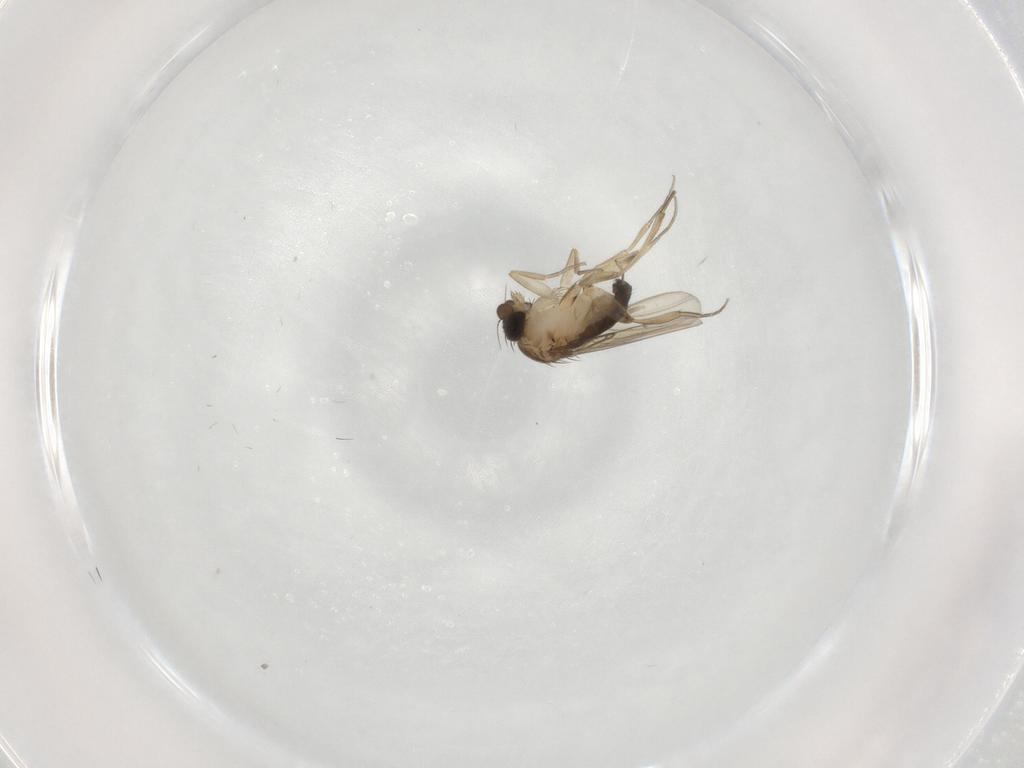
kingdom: Animalia
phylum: Arthropoda
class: Insecta
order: Diptera
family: Phoridae
